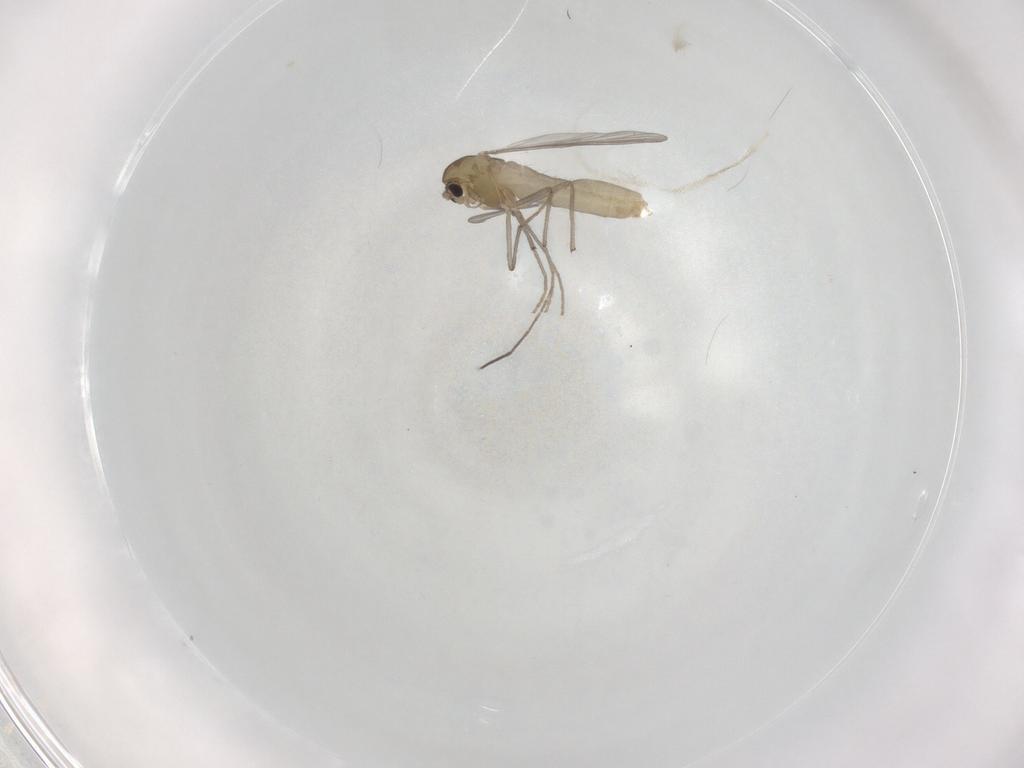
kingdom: Animalia
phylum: Arthropoda
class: Insecta
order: Diptera
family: Chironomidae
